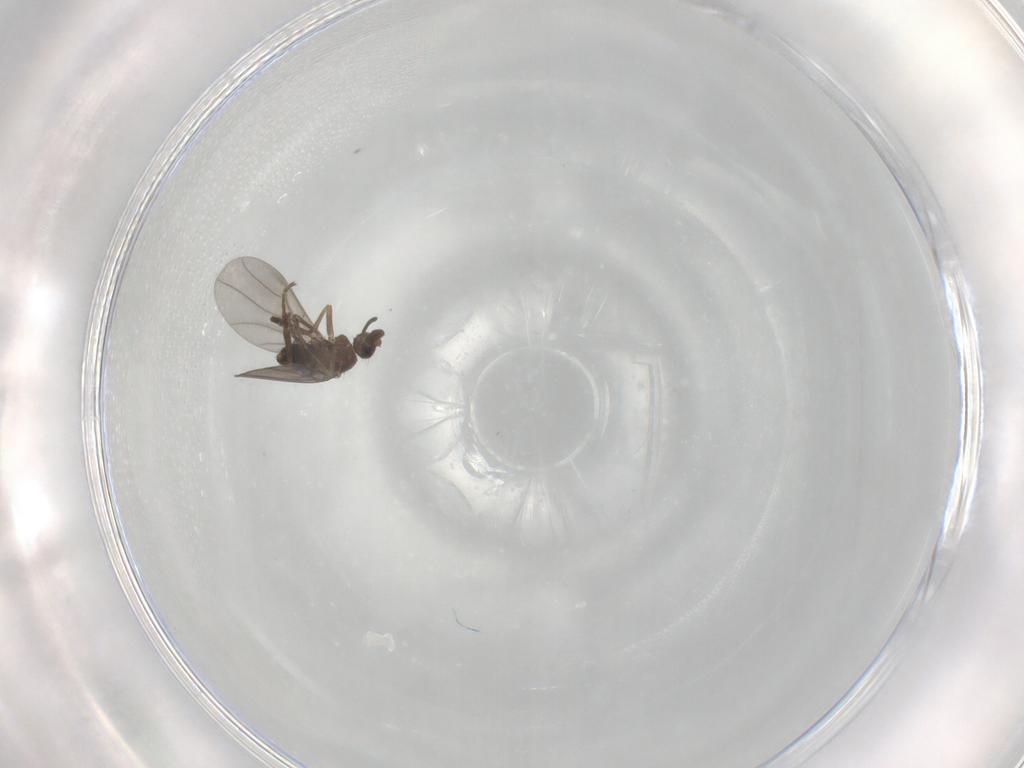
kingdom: Animalia
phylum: Arthropoda
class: Insecta
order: Diptera
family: Phoridae
